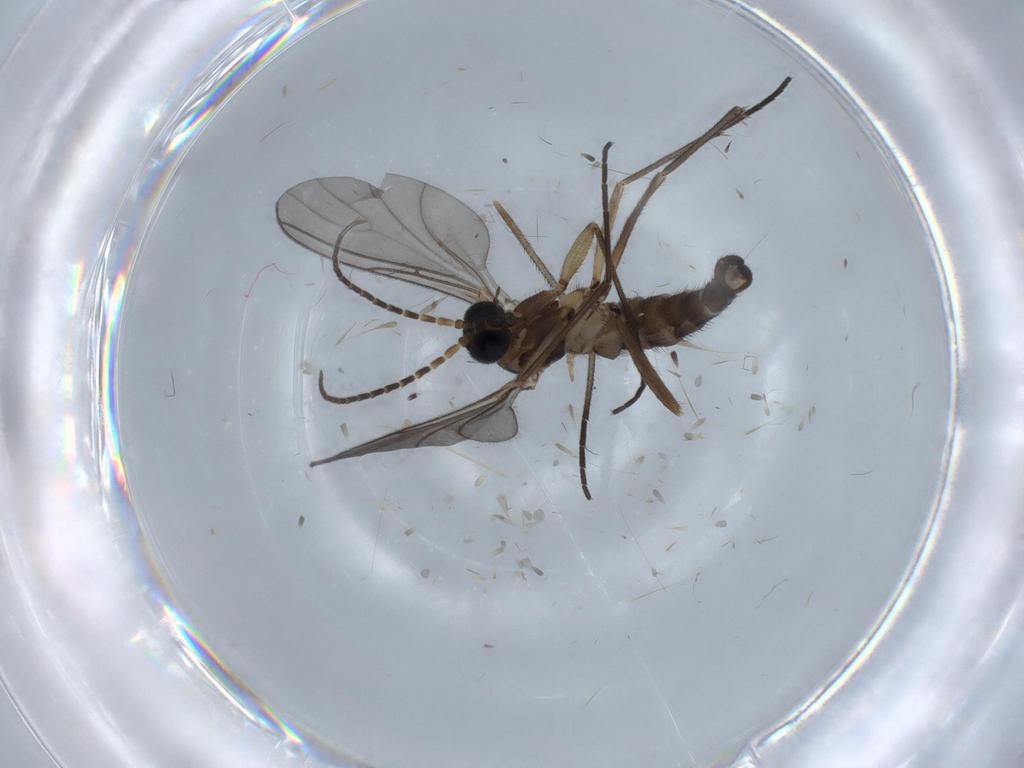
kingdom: Animalia
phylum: Arthropoda
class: Insecta
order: Diptera
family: Sciaridae
